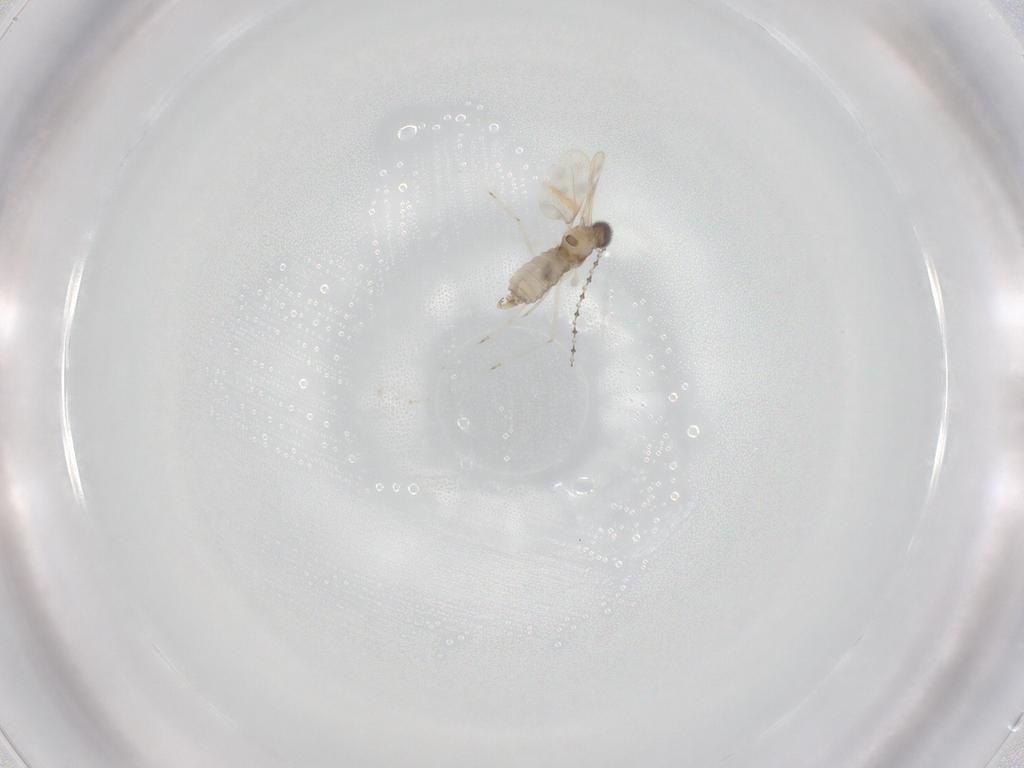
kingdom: Animalia
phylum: Arthropoda
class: Insecta
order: Diptera
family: Cecidomyiidae
